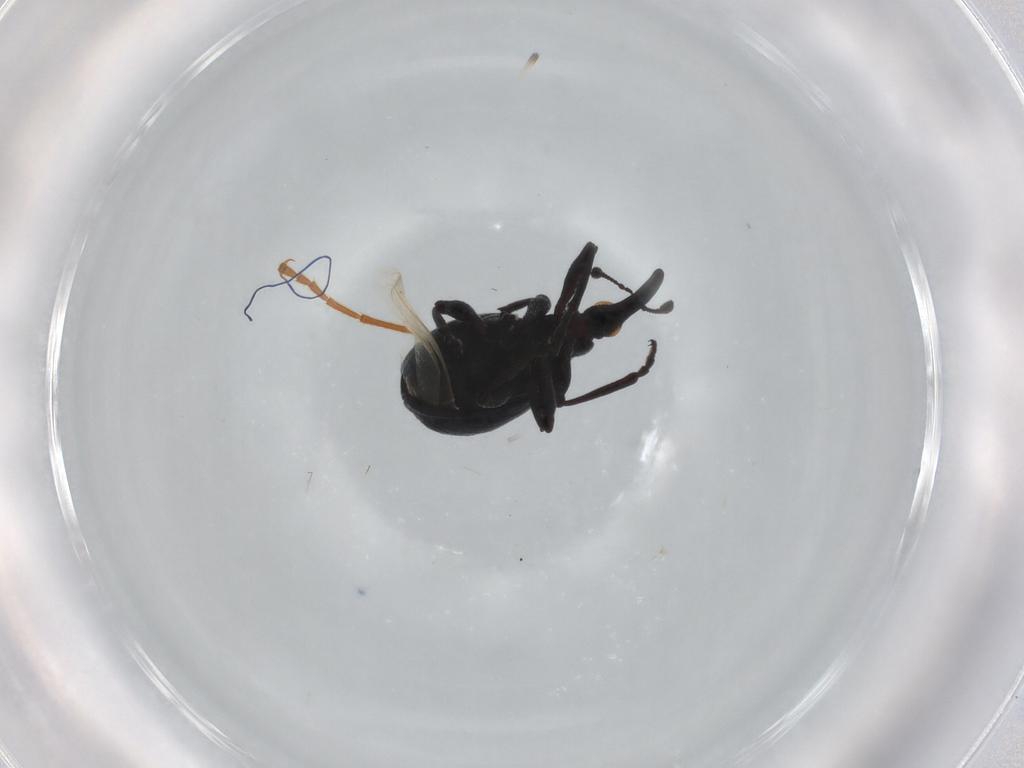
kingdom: Animalia
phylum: Arthropoda
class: Insecta
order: Coleoptera
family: Brentidae
